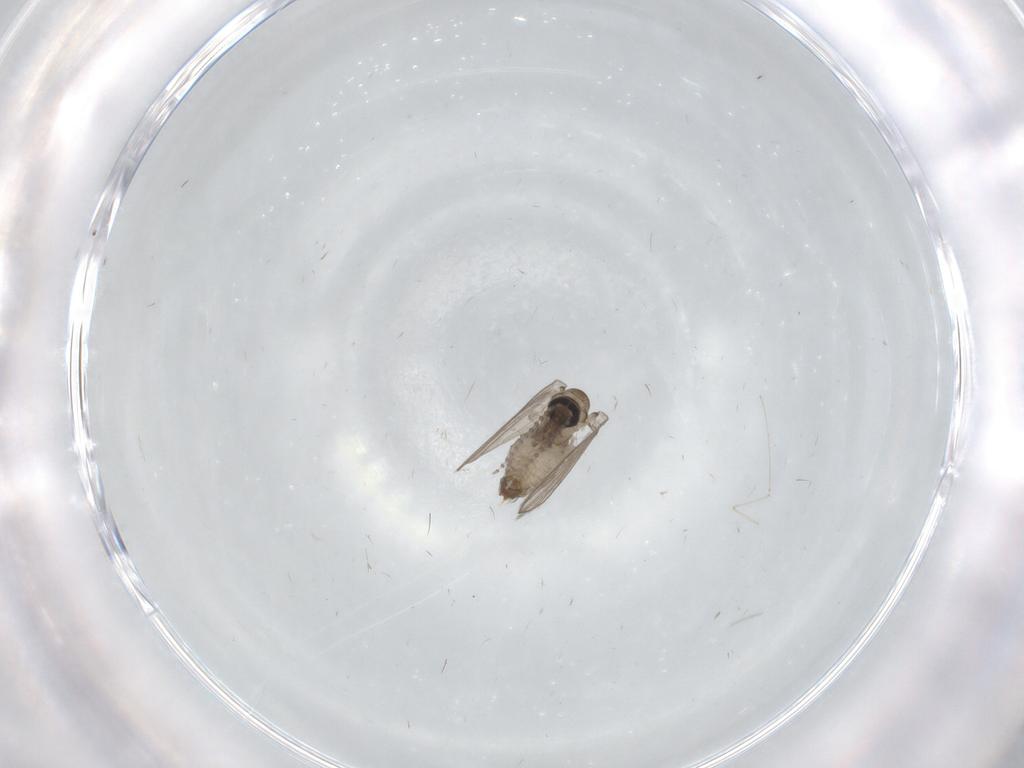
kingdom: Animalia
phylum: Arthropoda
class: Insecta
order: Diptera
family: Psychodidae
